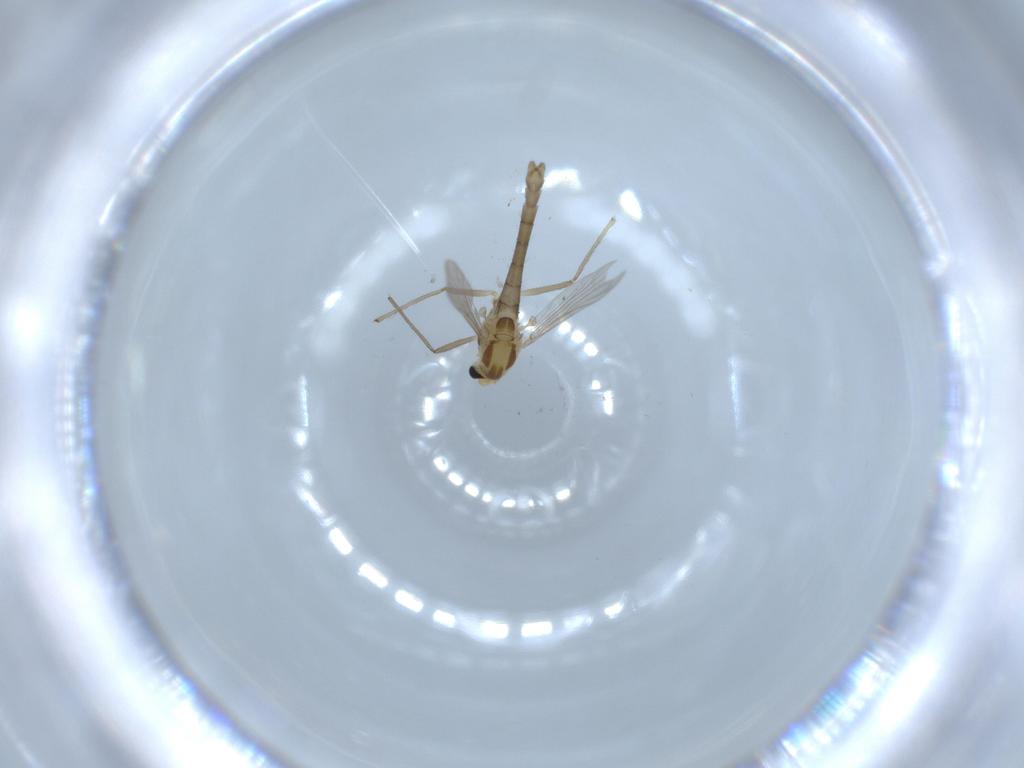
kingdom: Animalia
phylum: Arthropoda
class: Insecta
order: Diptera
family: Chironomidae
